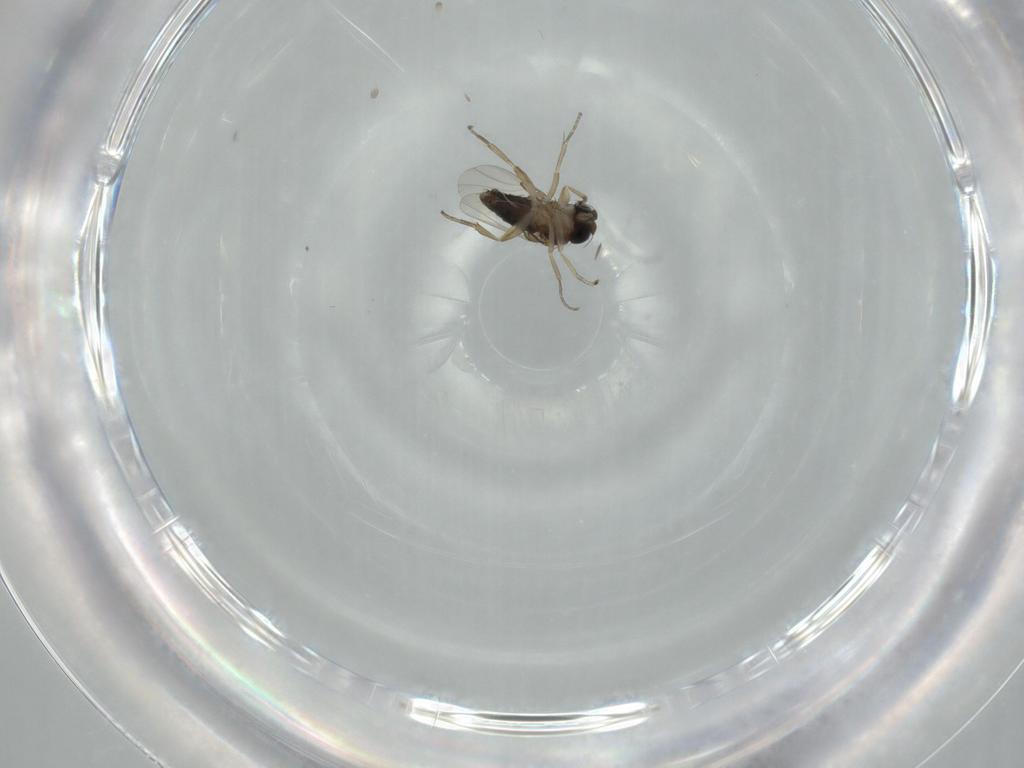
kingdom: Animalia
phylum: Arthropoda
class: Insecta
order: Diptera
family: Phoridae
